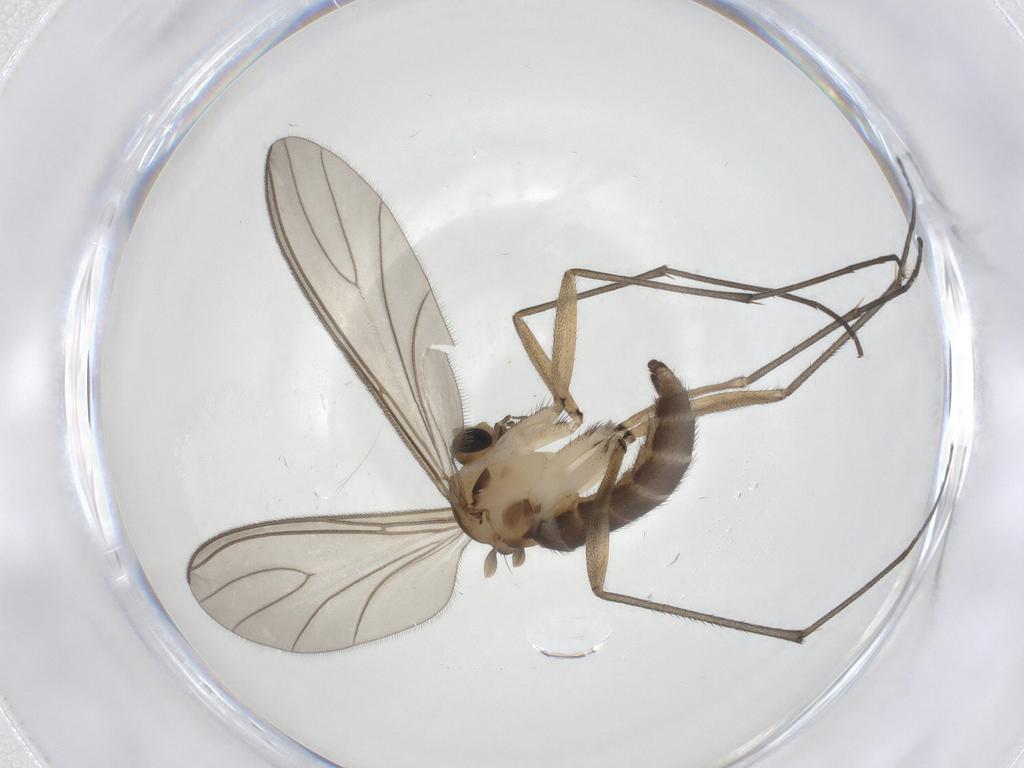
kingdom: Animalia
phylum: Arthropoda
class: Insecta
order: Diptera
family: Sciaridae
